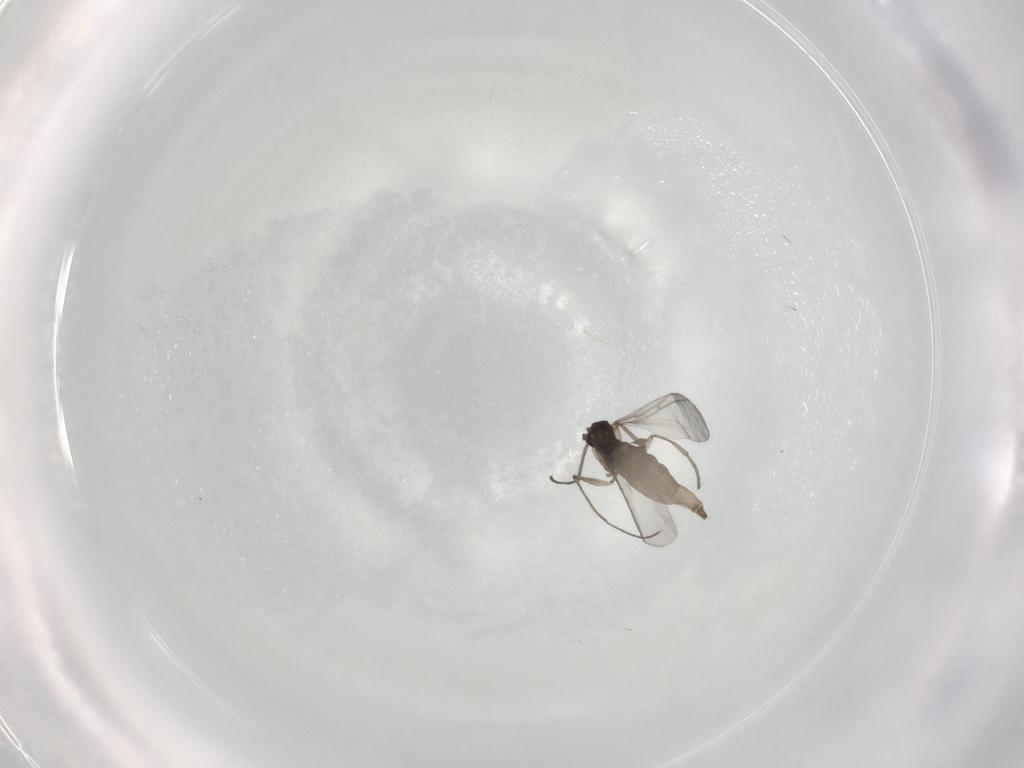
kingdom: Animalia
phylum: Arthropoda
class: Insecta
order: Diptera
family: Sciaridae
